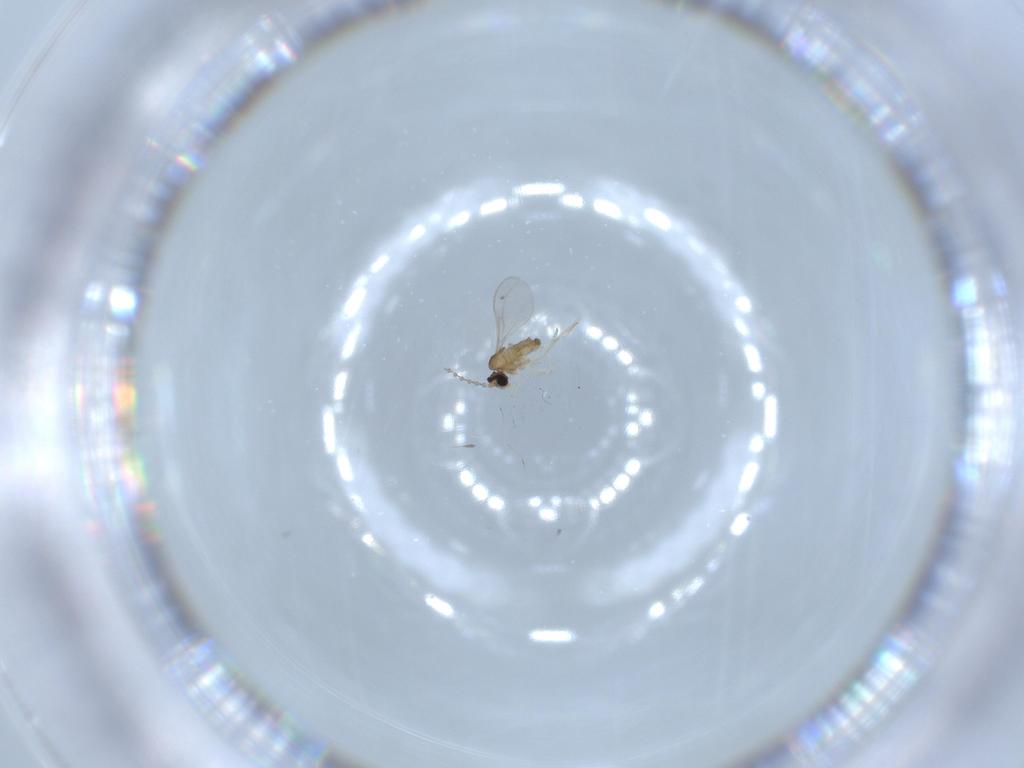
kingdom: Animalia
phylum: Arthropoda
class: Insecta
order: Diptera
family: Cecidomyiidae
